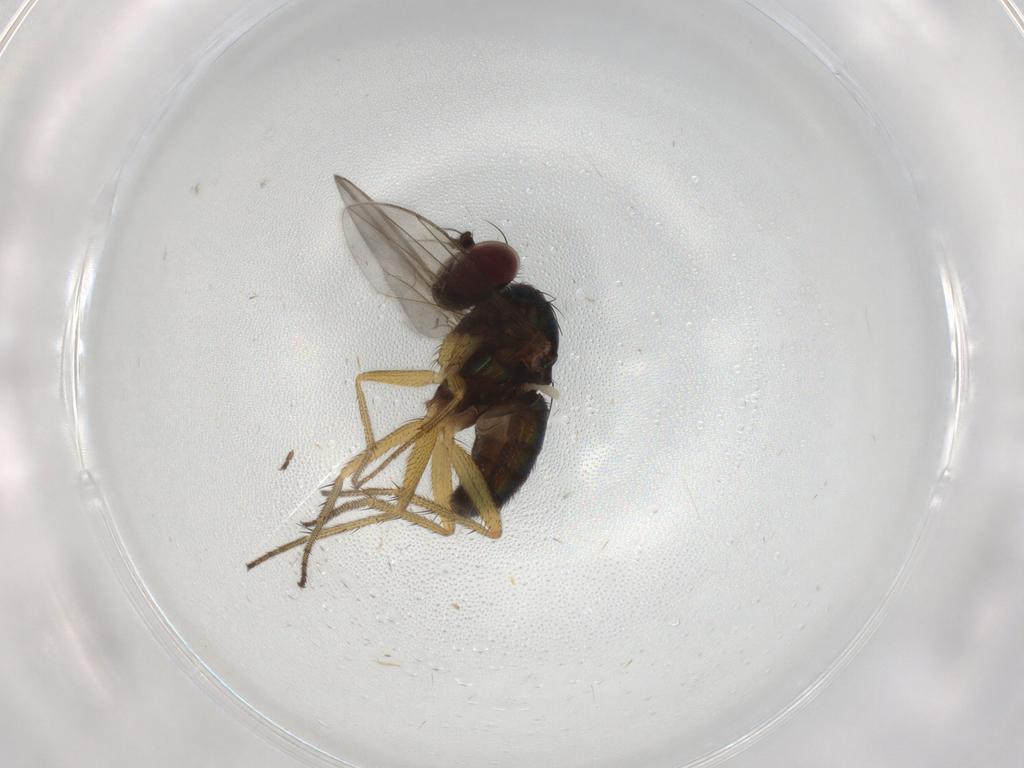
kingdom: Animalia
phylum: Arthropoda
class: Insecta
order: Diptera
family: Dolichopodidae
